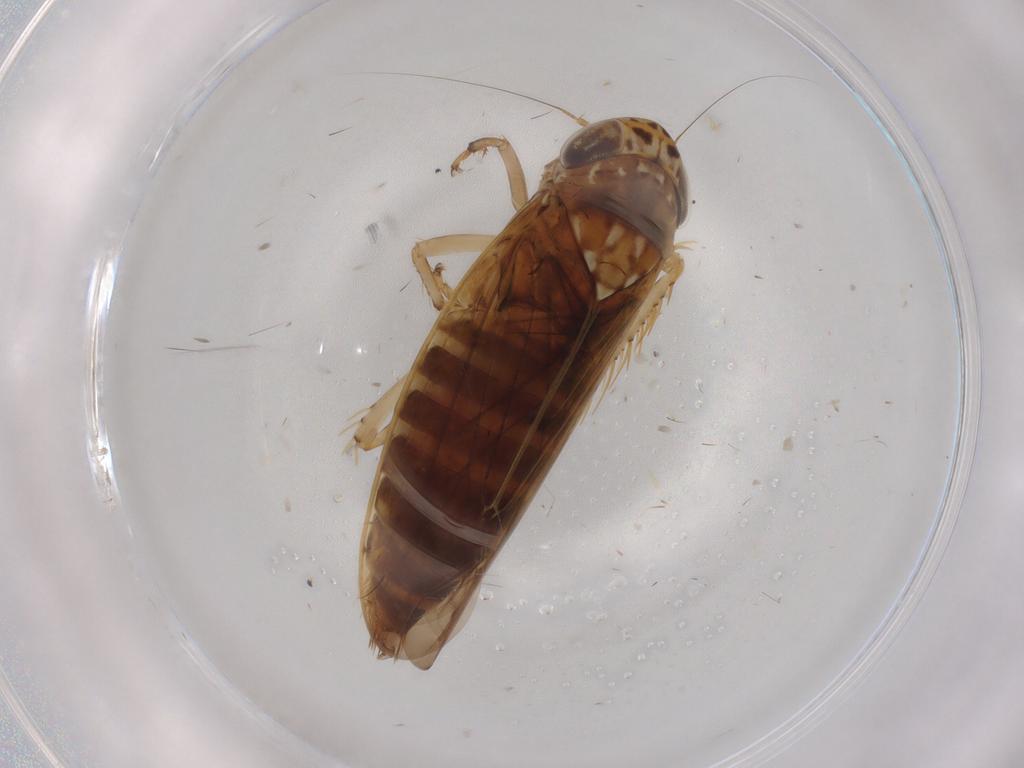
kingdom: Animalia
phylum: Arthropoda
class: Insecta
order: Hemiptera
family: Cicadellidae
